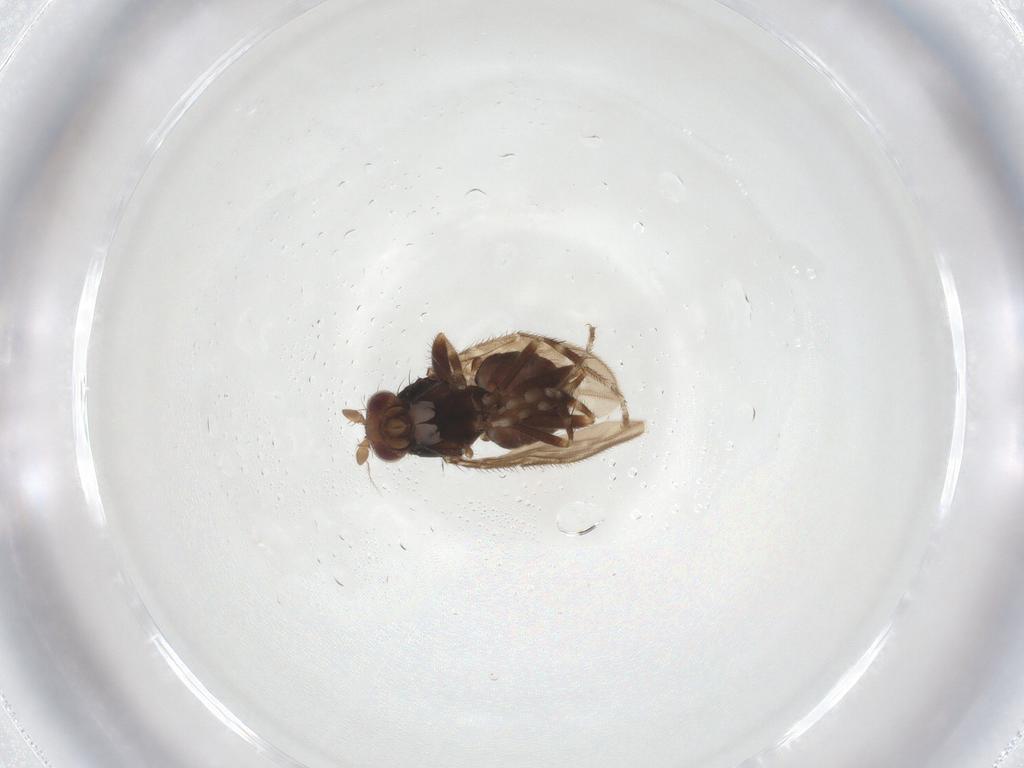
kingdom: Animalia
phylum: Arthropoda
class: Insecta
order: Diptera
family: Sphaeroceridae
